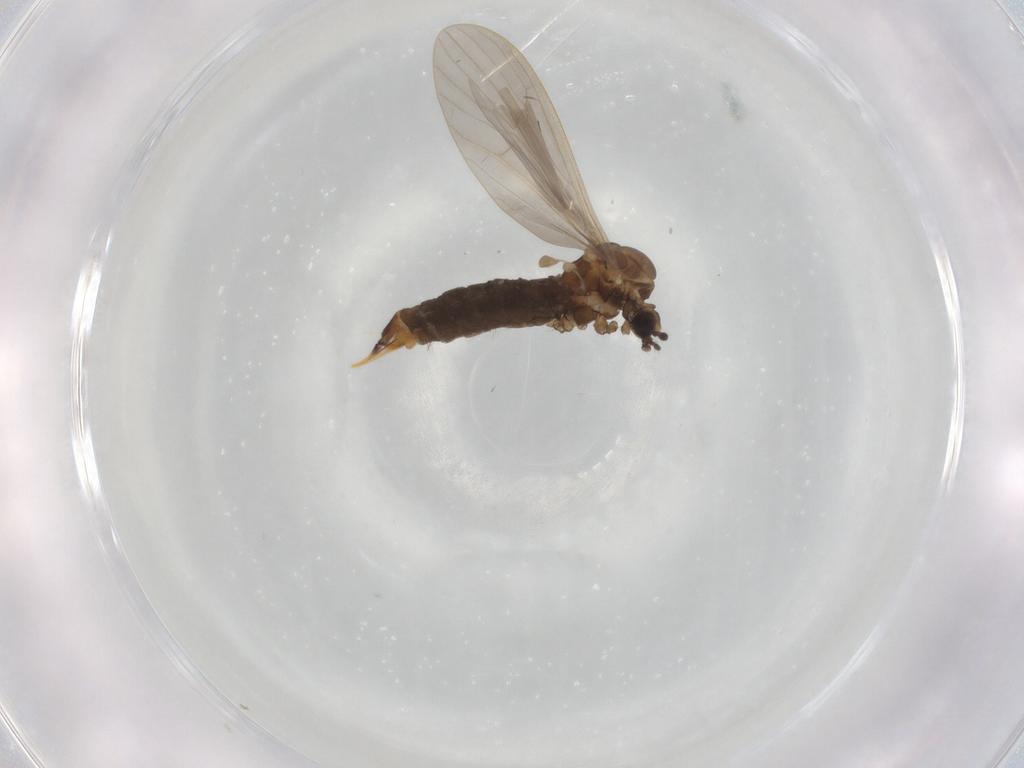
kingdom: Animalia
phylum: Arthropoda
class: Insecta
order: Diptera
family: Limoniidae
